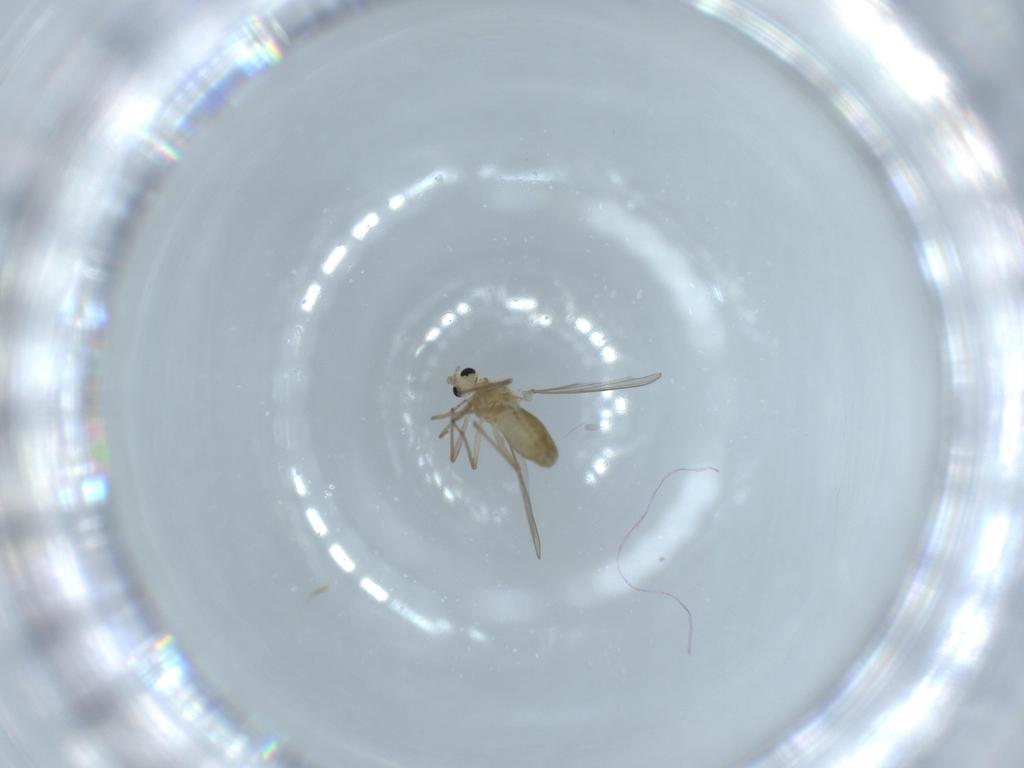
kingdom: Animalia
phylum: Arthropoda
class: Insecta
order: Diptera
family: Chironomidae
